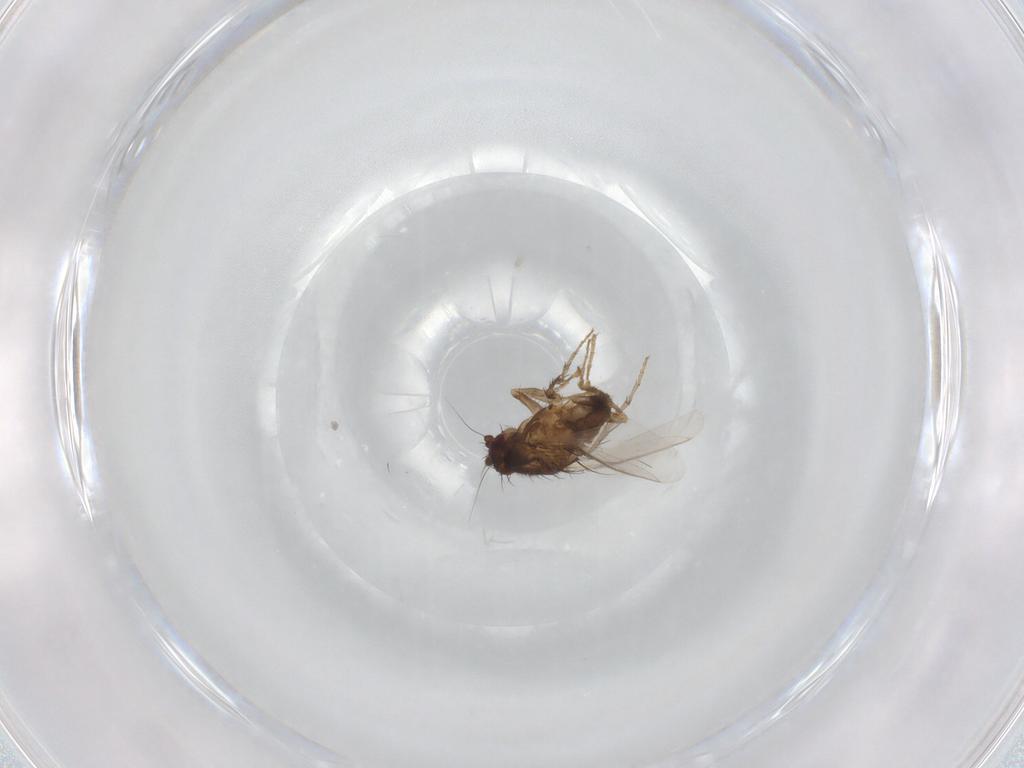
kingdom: Animalia
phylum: Arthropoda
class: Insecta
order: Diptera
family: Sphaeroceridae
